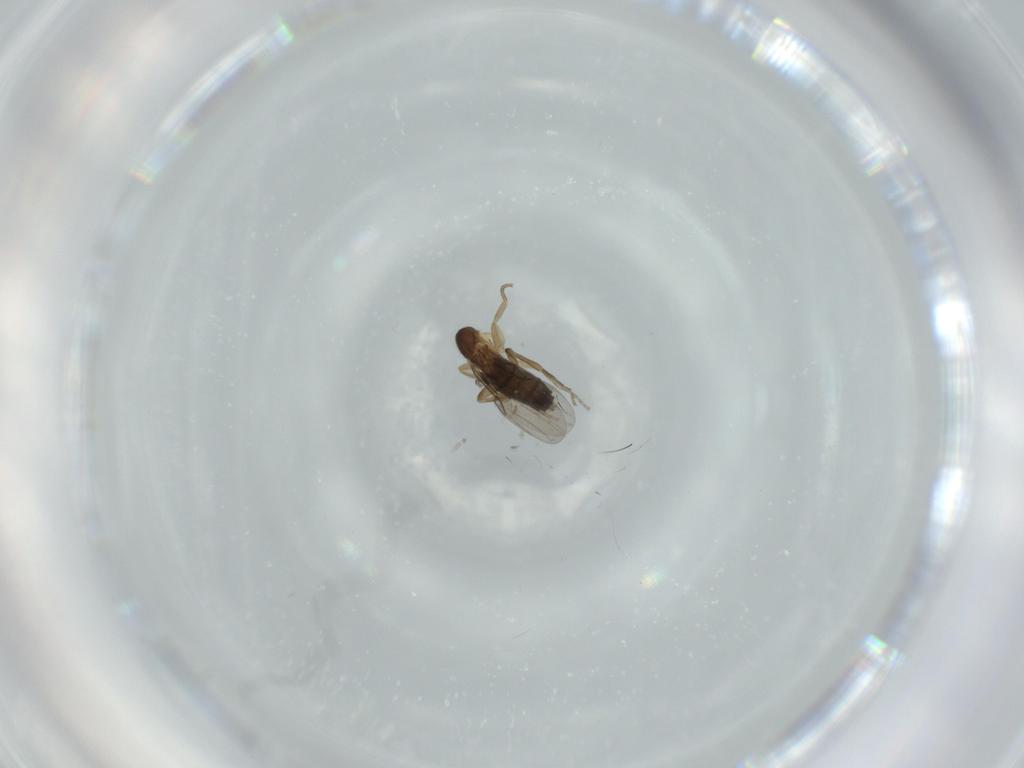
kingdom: Animalia
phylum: Arthropoda
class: Insecta
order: Diptera
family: Phoridae
